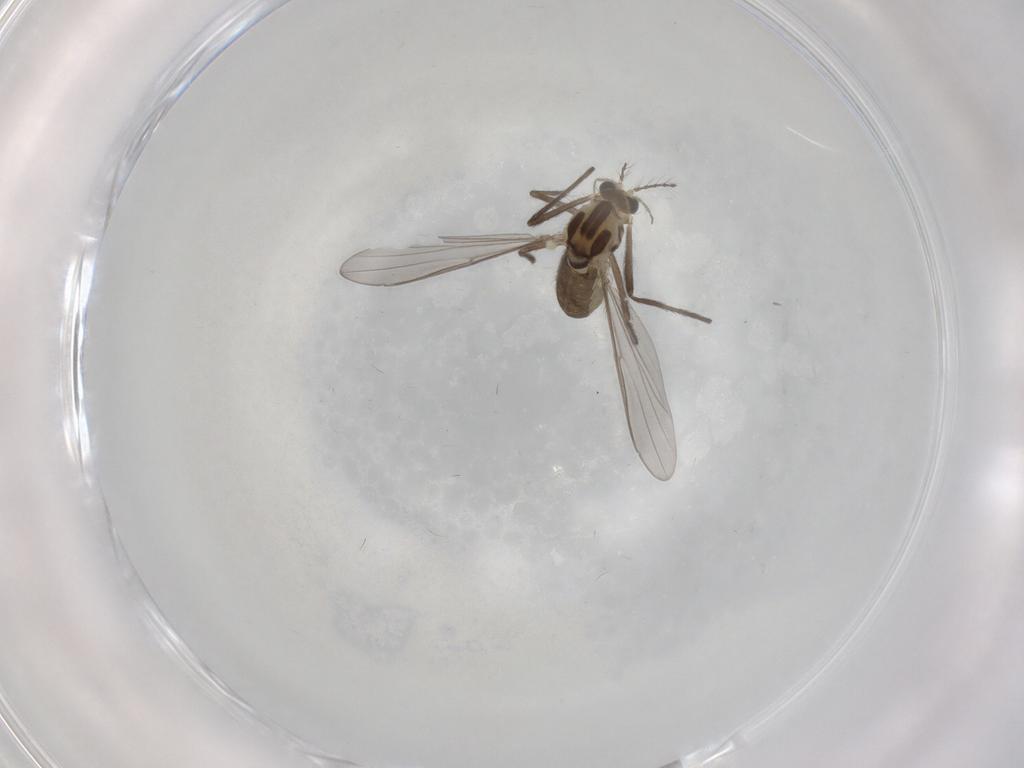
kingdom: Animalia
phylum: Arthropoda
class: Insecta
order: Diptera
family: Chironomidae
